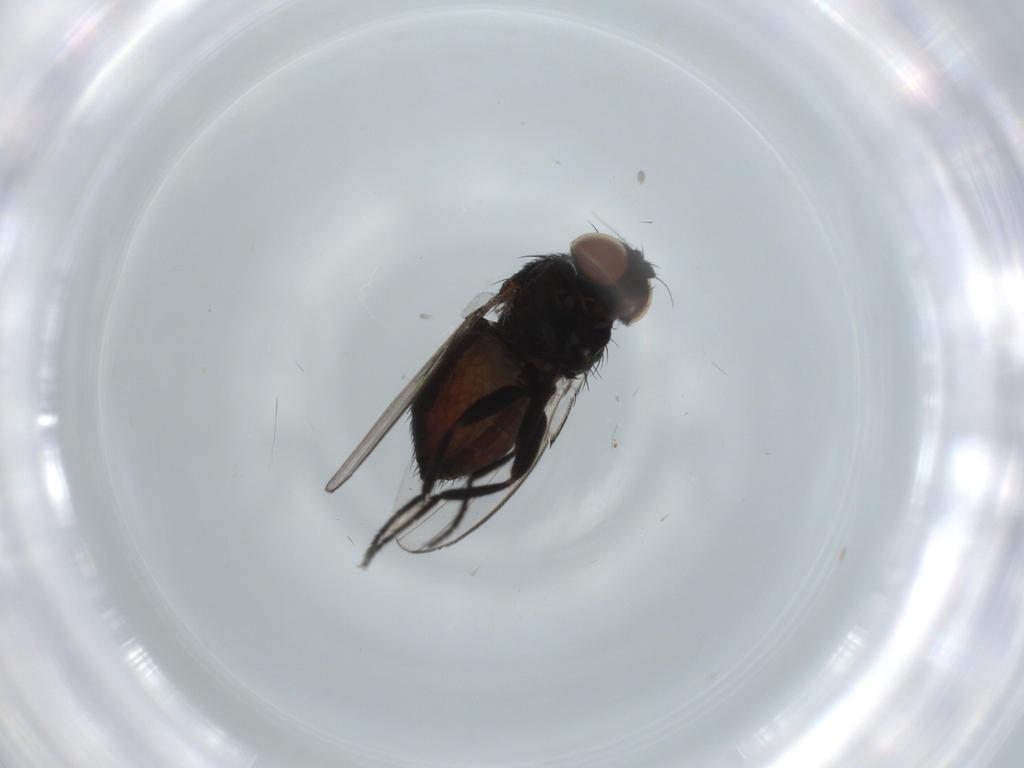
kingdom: Animalia
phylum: Arthropoda
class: Insecta
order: Diptera
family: Milichiidae
